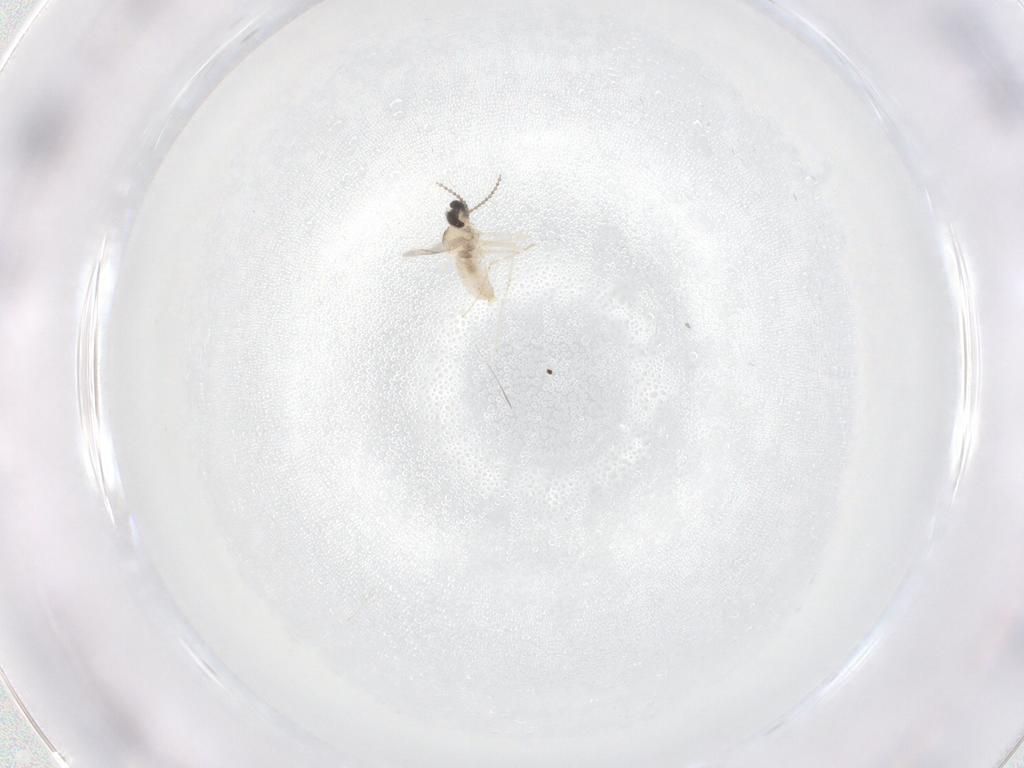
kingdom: Animalia
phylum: Arthropoda
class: Insecta
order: Diptera
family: Cecidomyiidae
